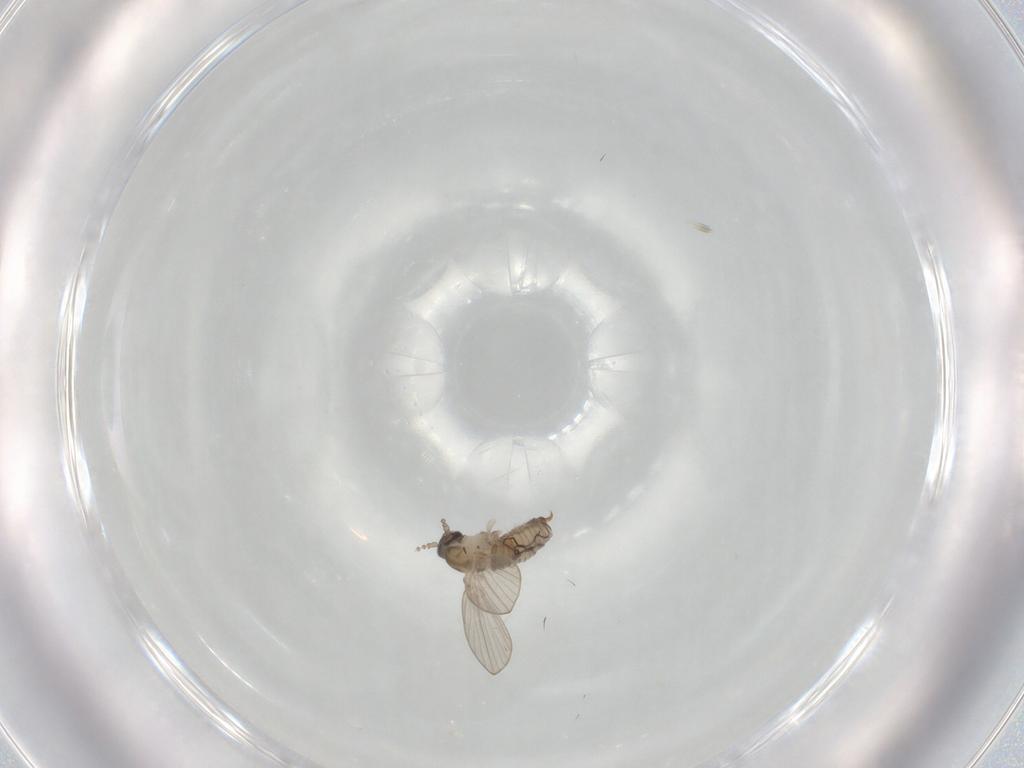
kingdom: Animalia
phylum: Arthropoda
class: Insecta
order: Diptera
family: Psychodidae
